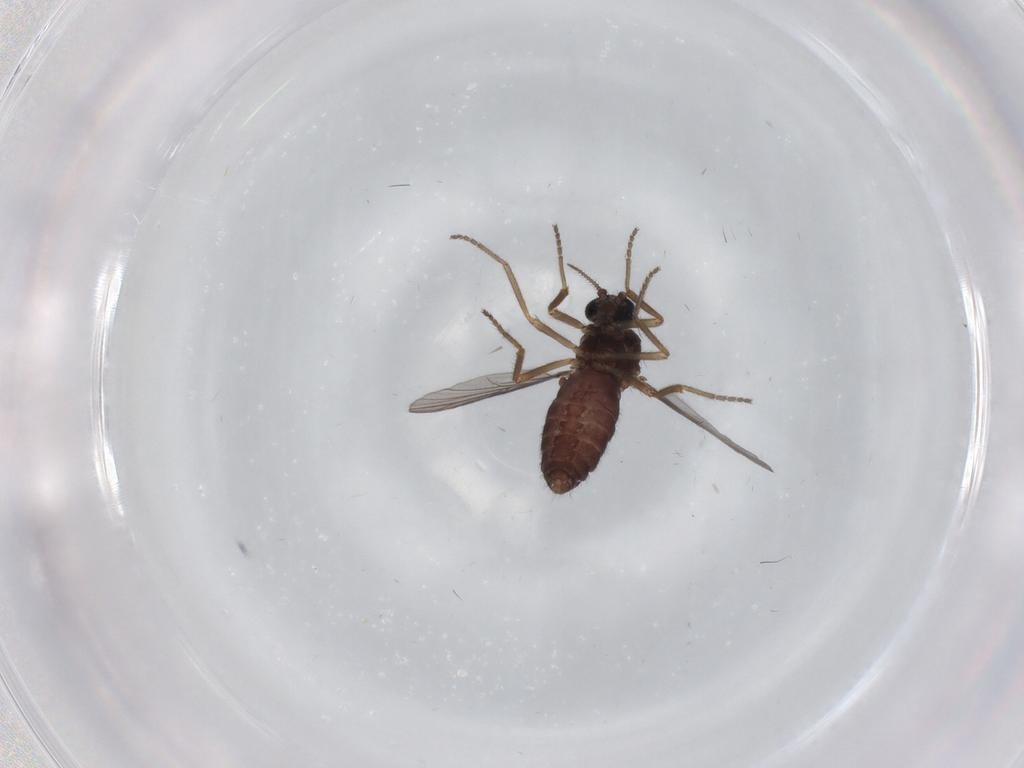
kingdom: Animalia
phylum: Arthropoda
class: Insecta
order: Diptera
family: Ceratopogonidae
